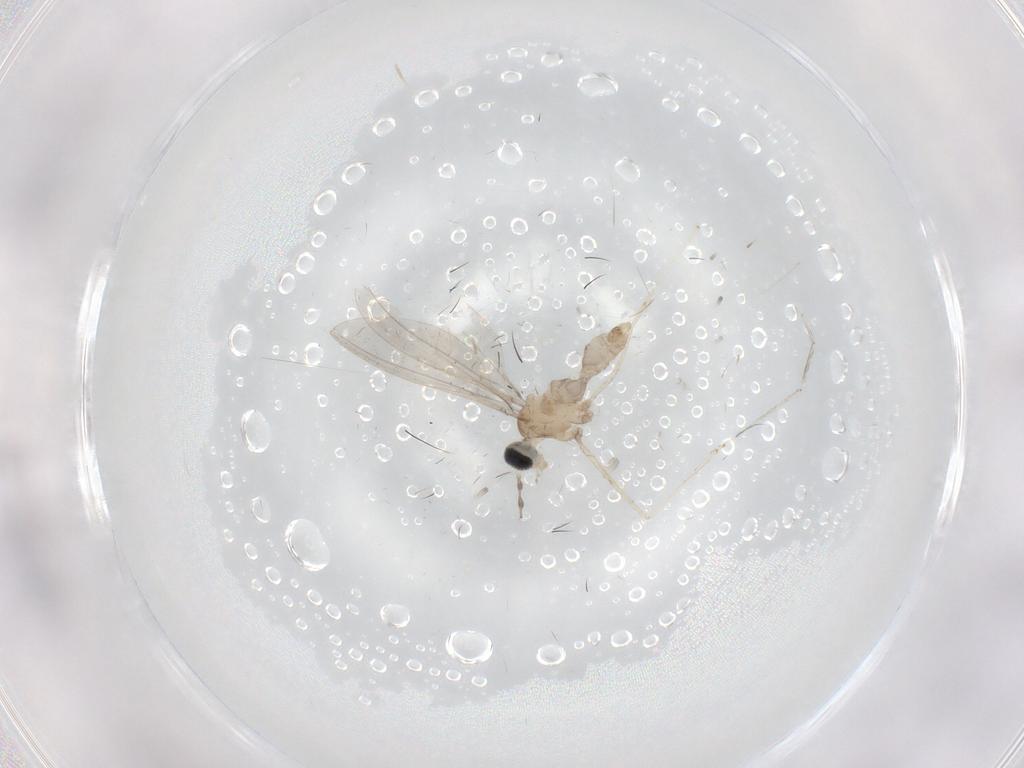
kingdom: Animalia
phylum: Arthropoda
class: Insecta
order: Diptera
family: Cecidomyiidae
